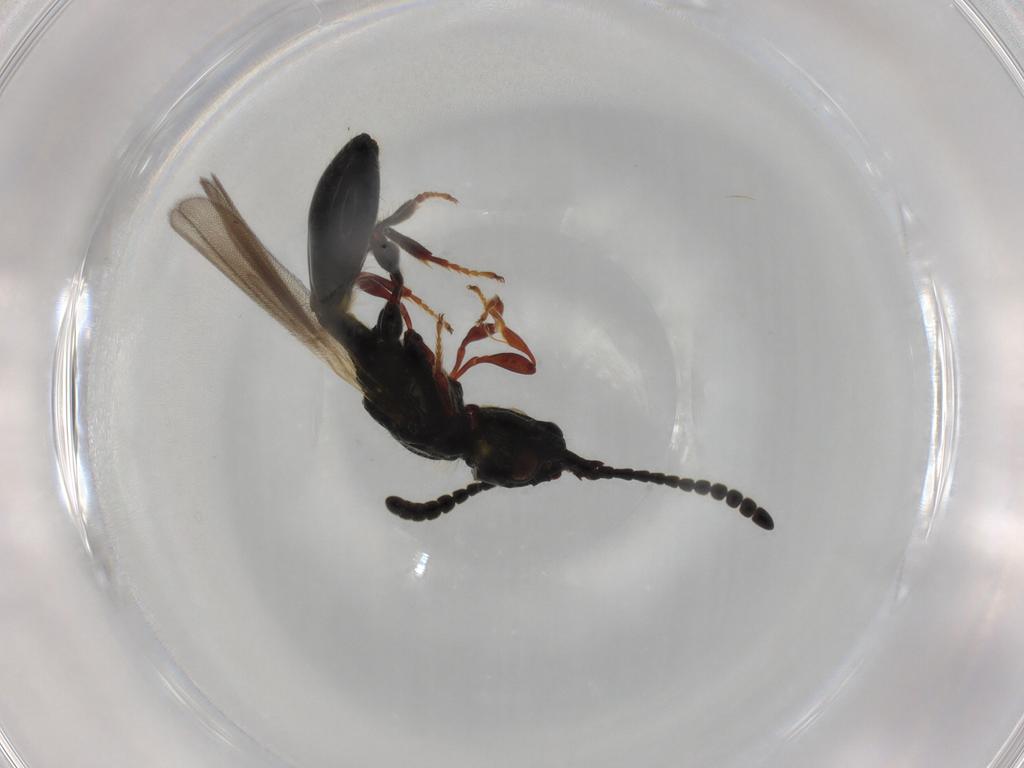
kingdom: Animalia
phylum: Arthropoda
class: Insecta
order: Hymenoptera
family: Diapriidae
